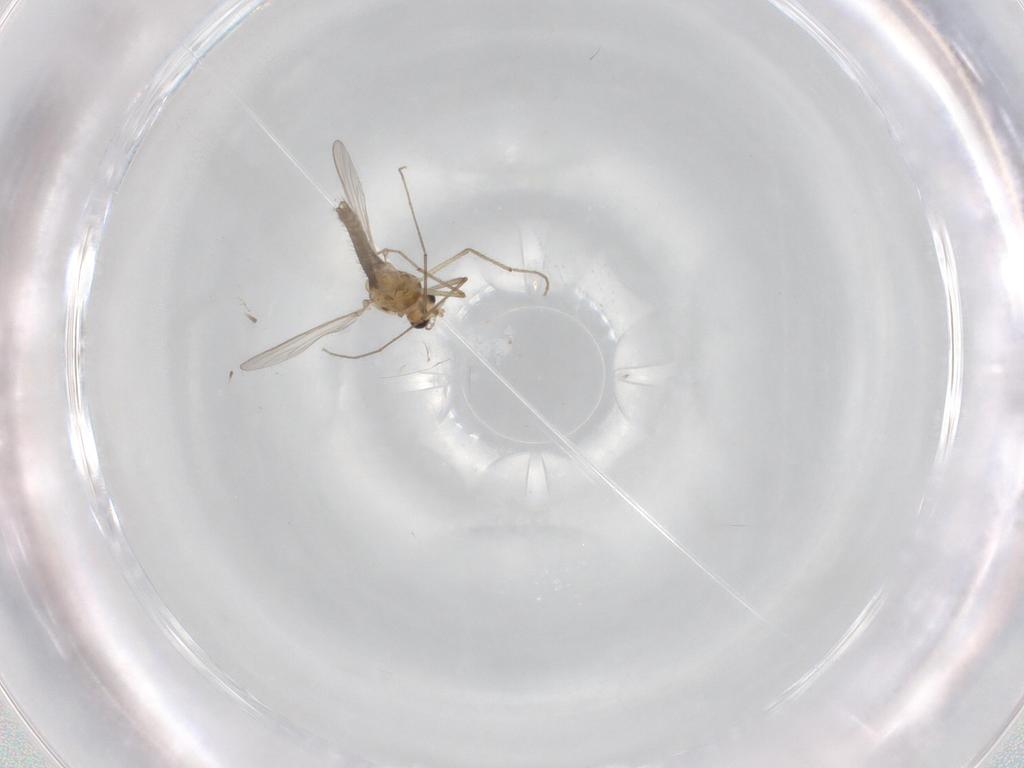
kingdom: Animalia
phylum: Arthropoda
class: Insecta
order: Diptera
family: Chironomidae
